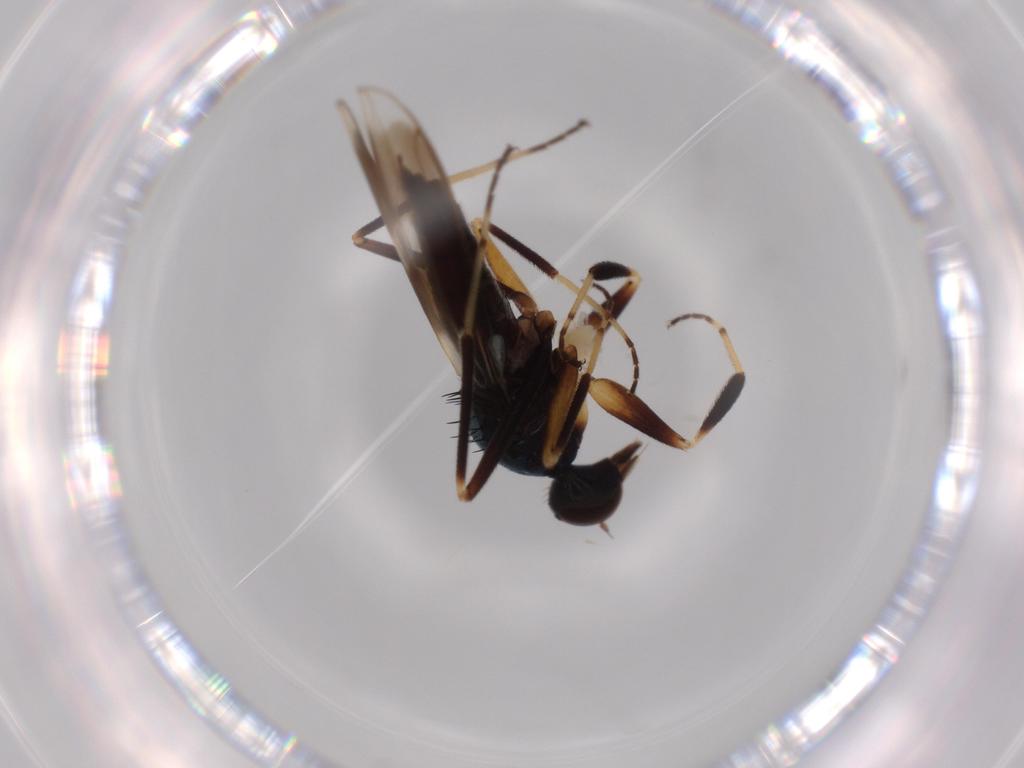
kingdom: Animalia
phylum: Arthropoda
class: Insecta
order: Diptera
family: Hybotidae
